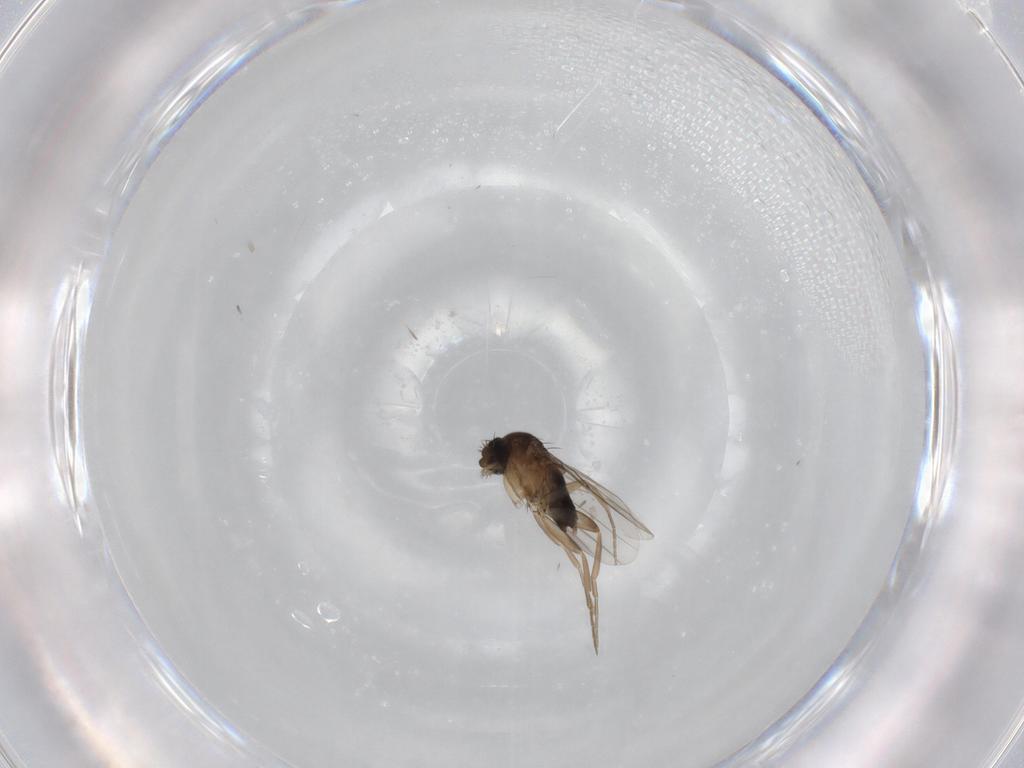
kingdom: Animalia
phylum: Arthropoda
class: Insecta
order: Diptera
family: Phoridae
